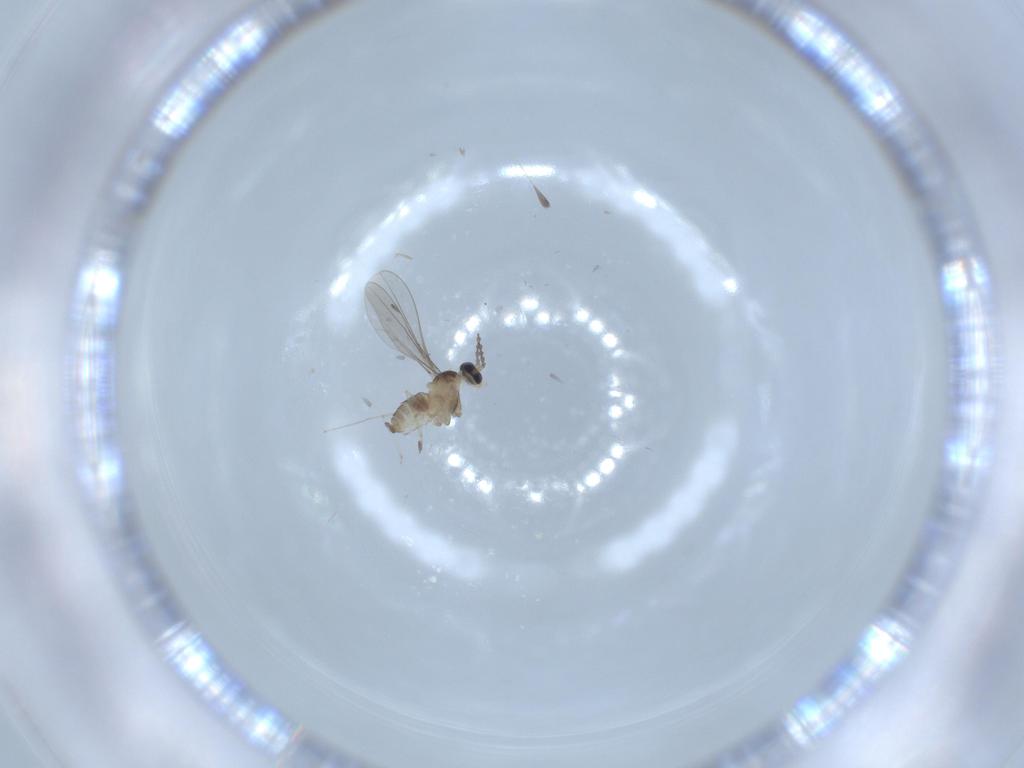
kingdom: Animalia
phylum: Arthropoda
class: Insecta
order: Diptera
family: Cecidomyiidae
